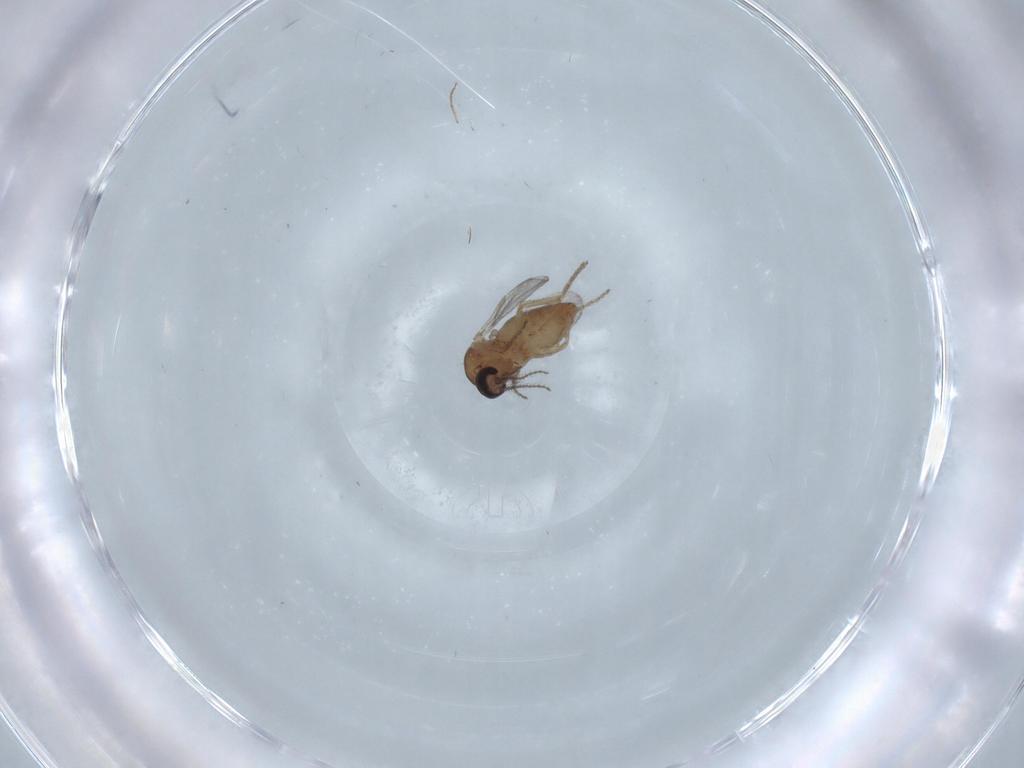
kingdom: Animalia
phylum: Arthropoda
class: Insecta
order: Diptera
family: Ceratopogonidae
